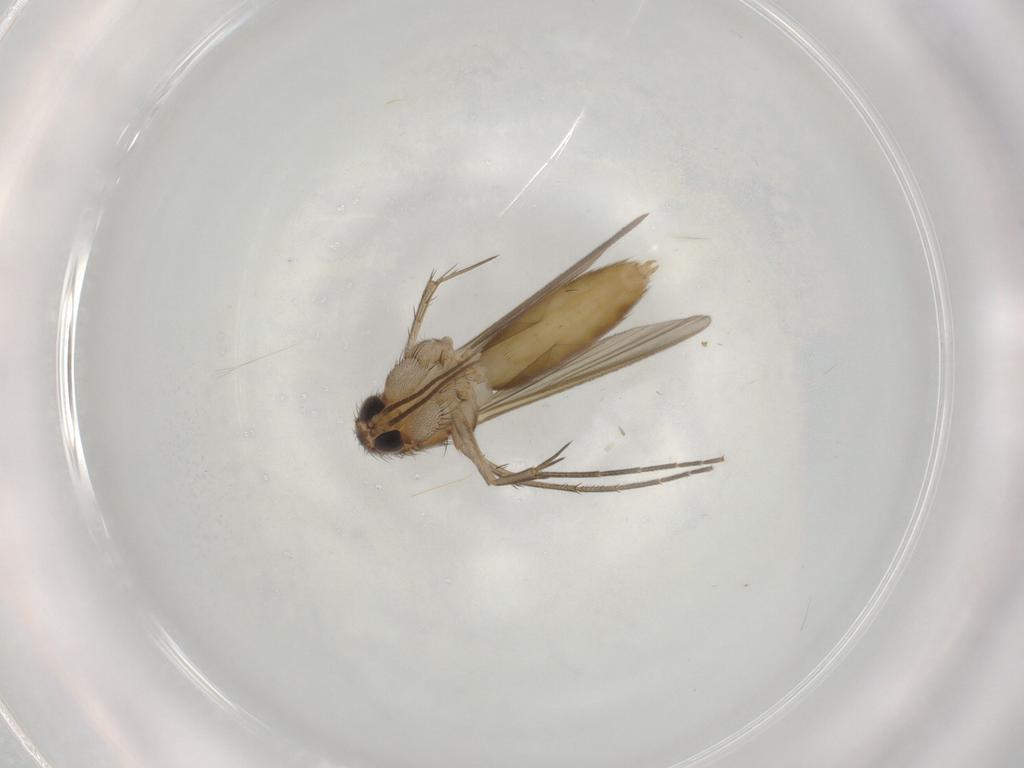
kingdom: Animalia
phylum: Arthropoda
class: Insecta
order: Diptera
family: Mycetophilidae
